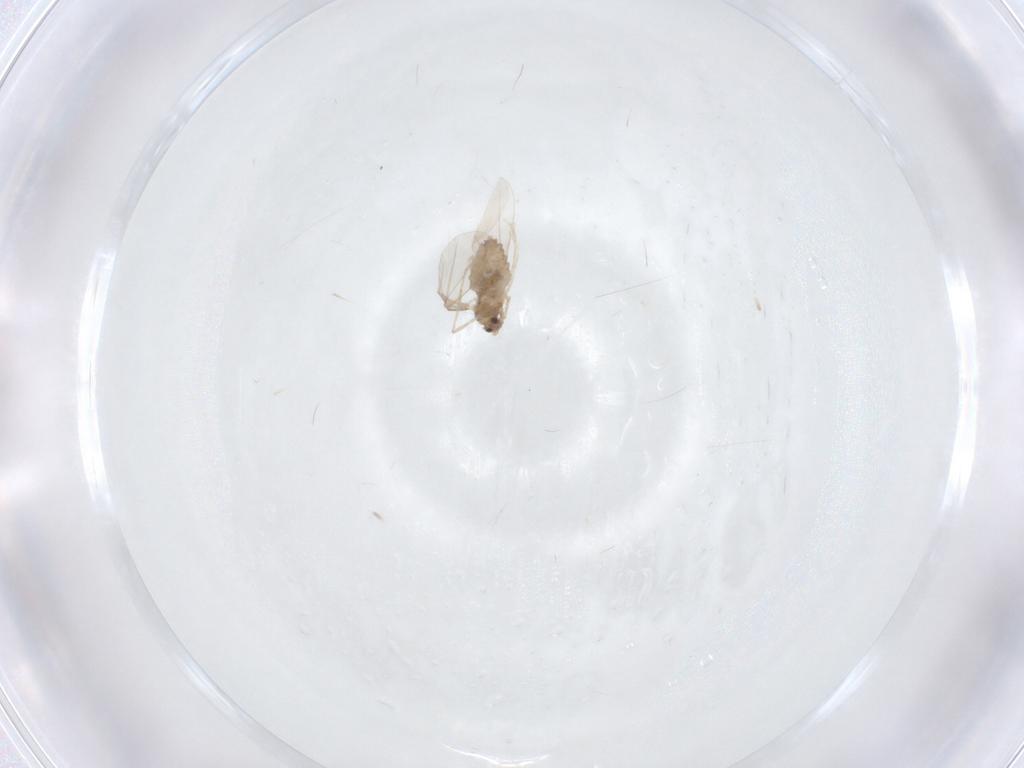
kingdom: Animalia
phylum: Arthropoda
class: Insecta
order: Diptera
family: Cecidomyiidae
